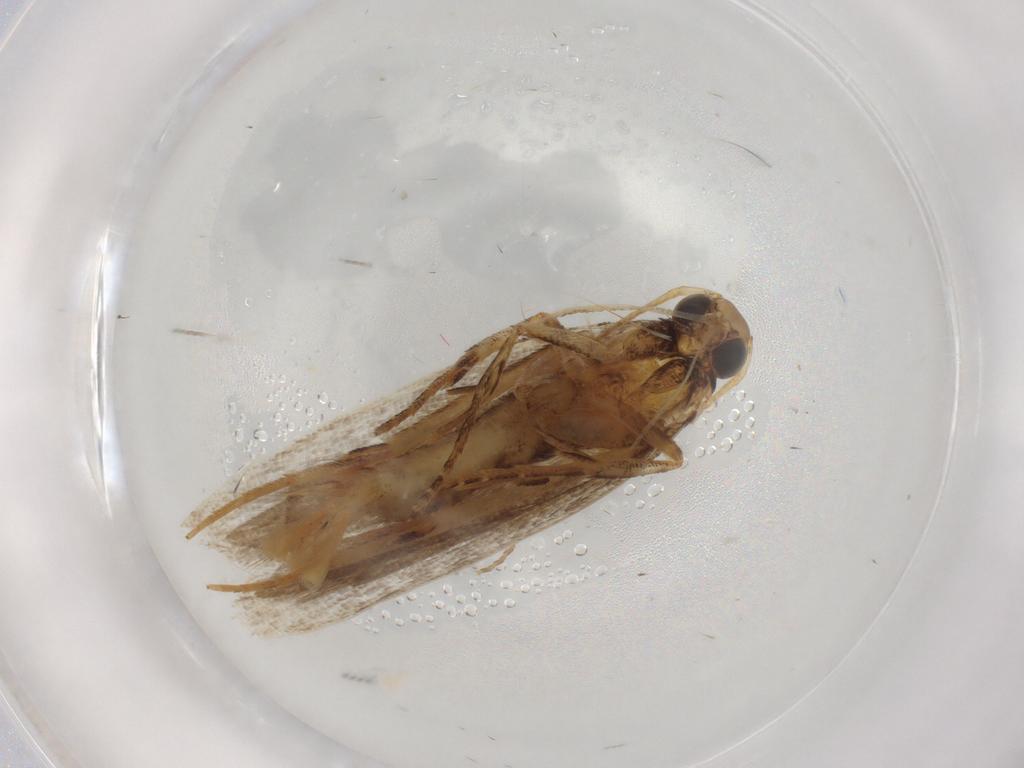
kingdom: Animalia
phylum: Arthropoda
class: Insecta
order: Lepidoptera
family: Gelechiidae
